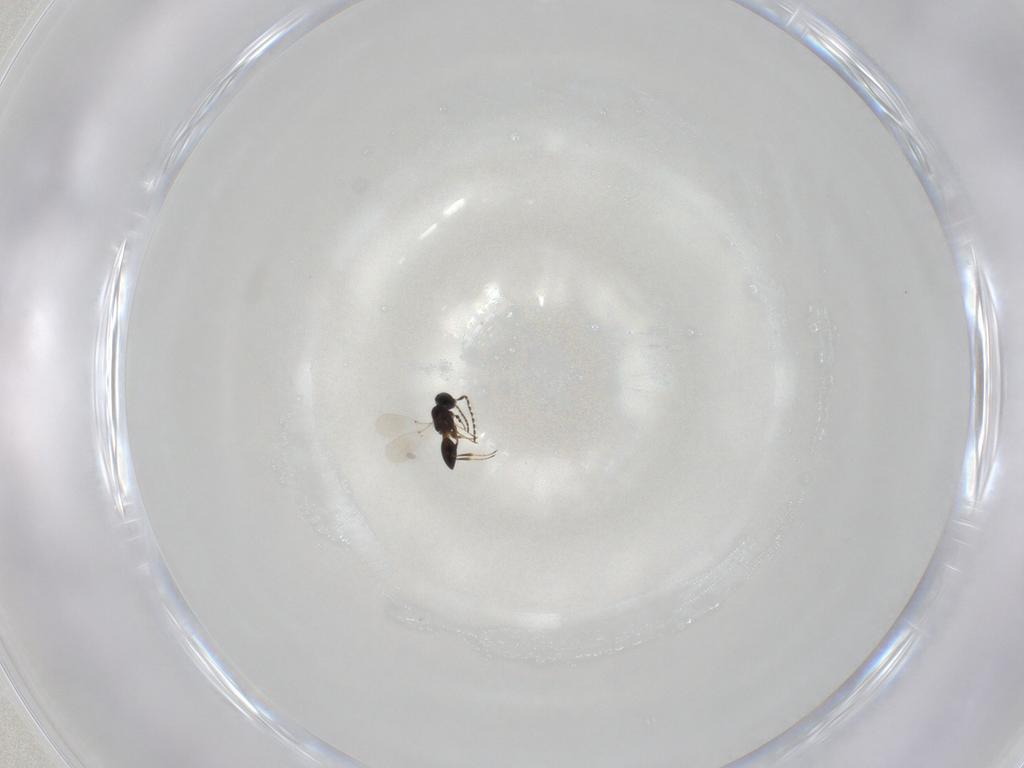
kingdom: Animalia
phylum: Arthropoda
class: Insecta
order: Hymenoptera
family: Platygastridae
